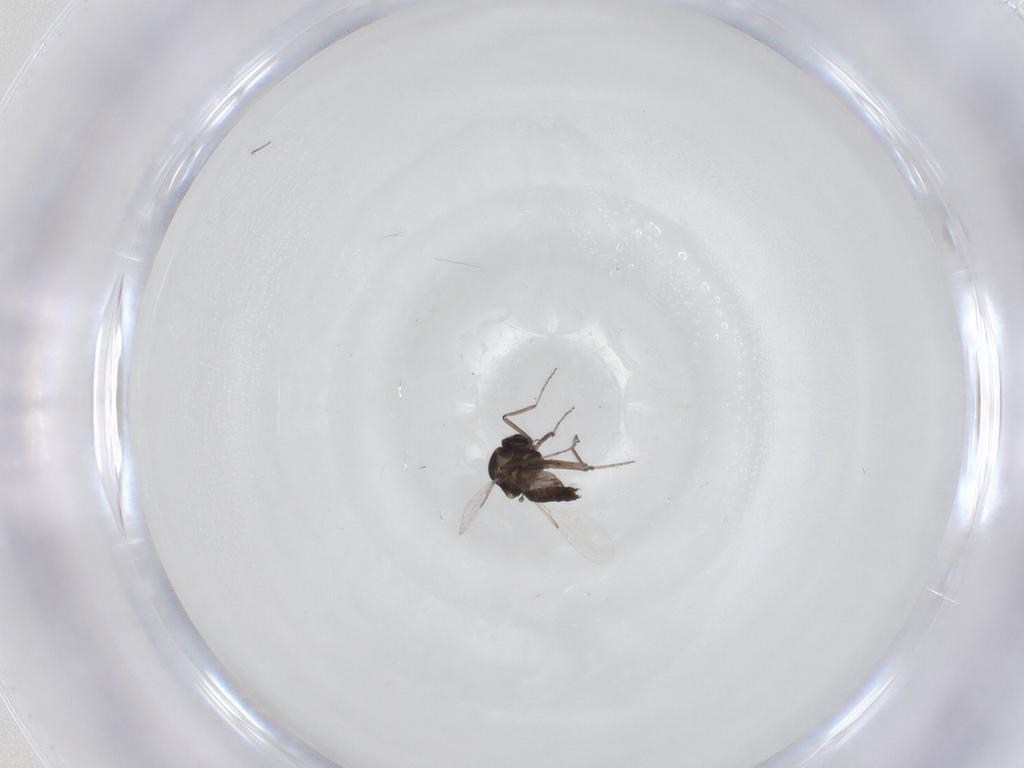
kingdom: Animalia
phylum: Arthropoda
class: Insecta
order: Diptera
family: Ceratopogonidae
